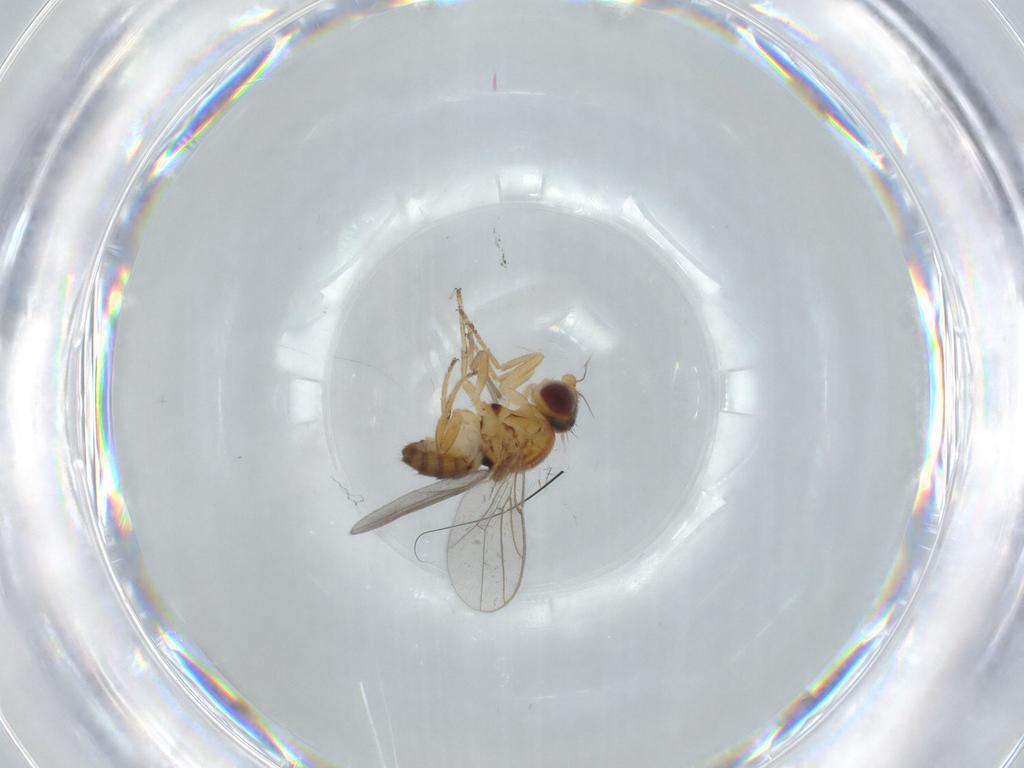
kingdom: Animalia
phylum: Arthropoda
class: Insecta
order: Diptera
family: Chloropidae
